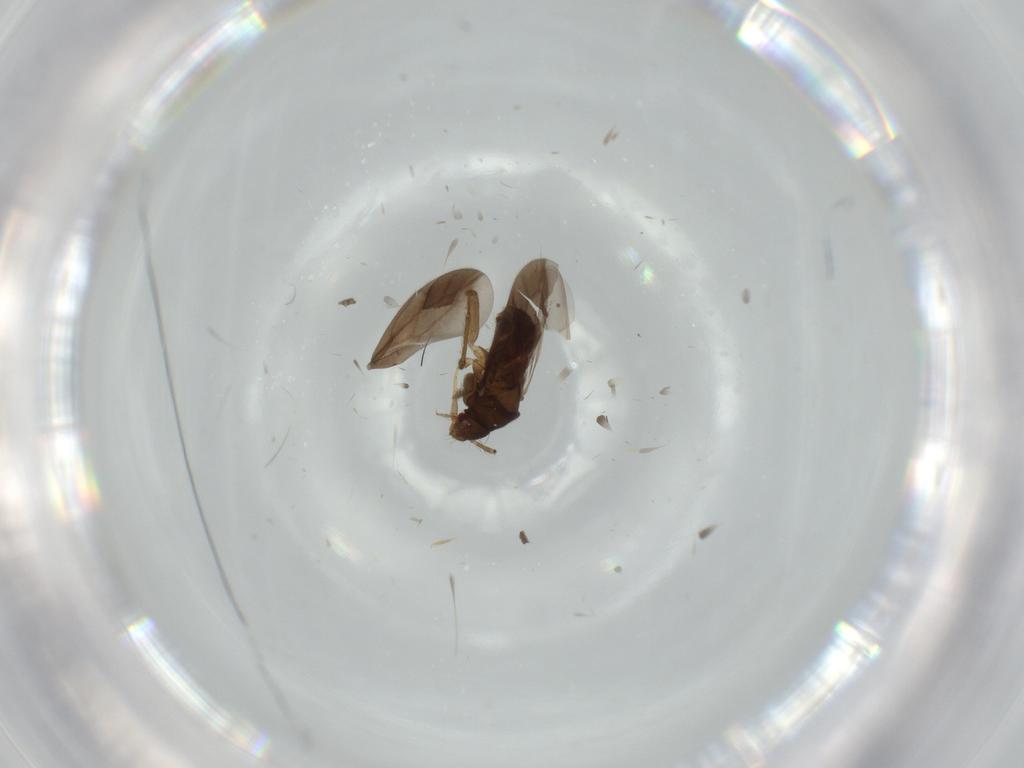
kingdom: Animalia
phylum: Arthropoda
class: Insecta
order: Hemiptera
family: Ceratocombidae
